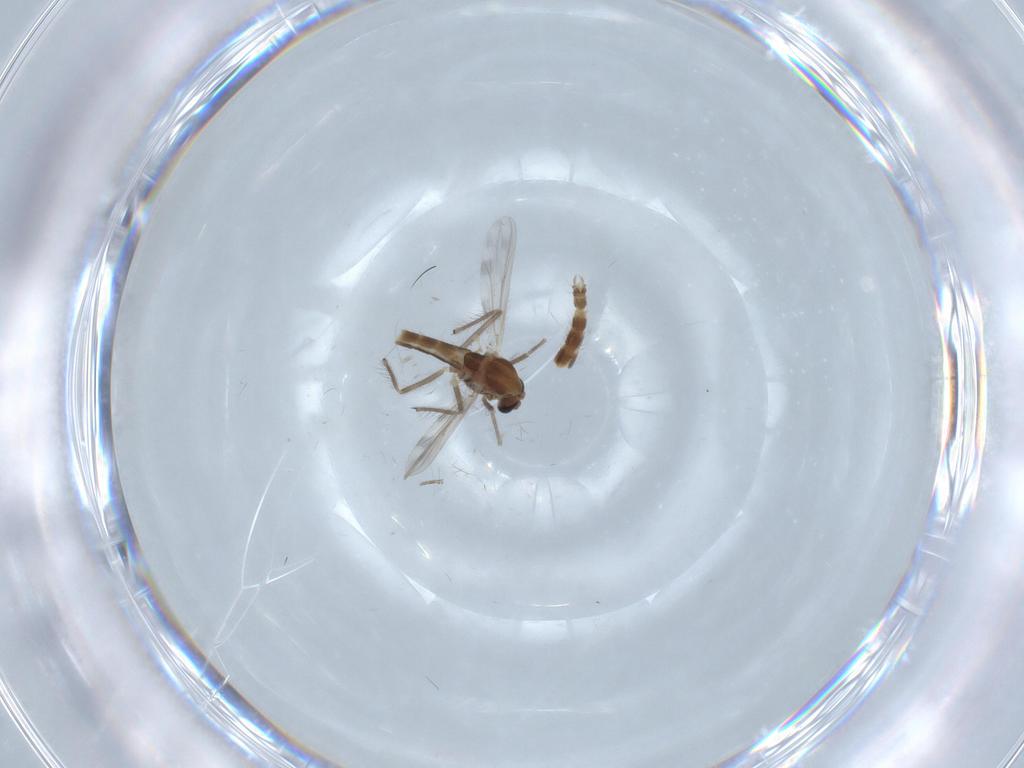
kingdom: Animalia
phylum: Arthropoda
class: Insecta
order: Diptera
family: Chironomidae
